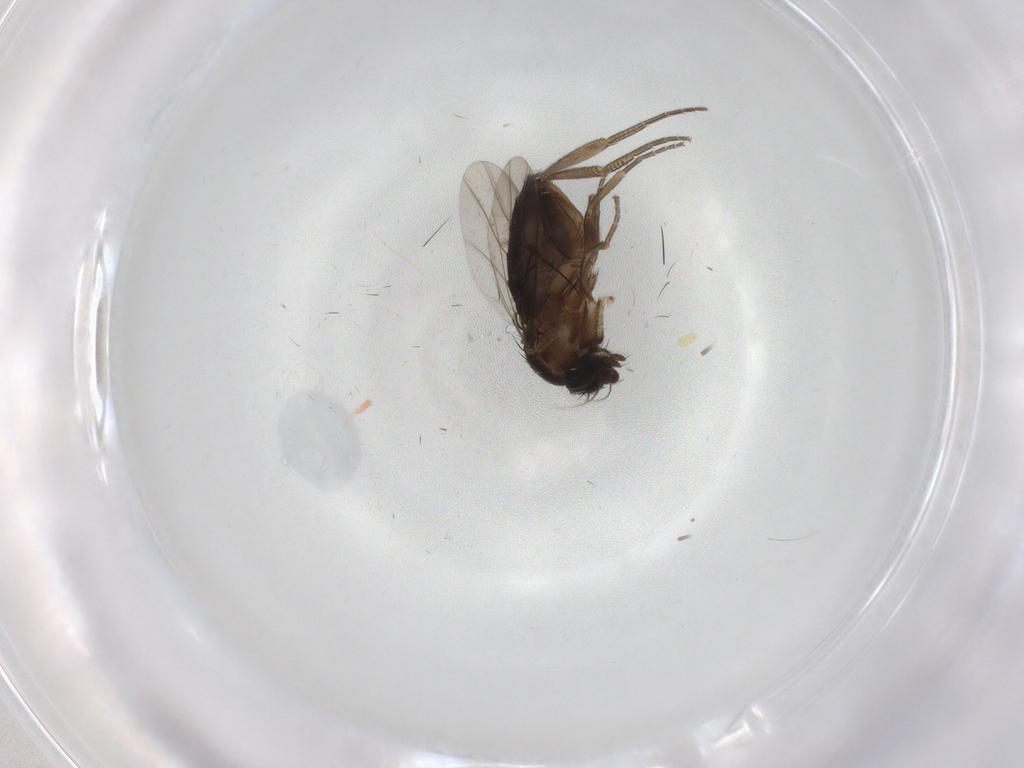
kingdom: Animalia
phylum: Arthropoda
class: Insecta
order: Diptera
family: Phoridae
